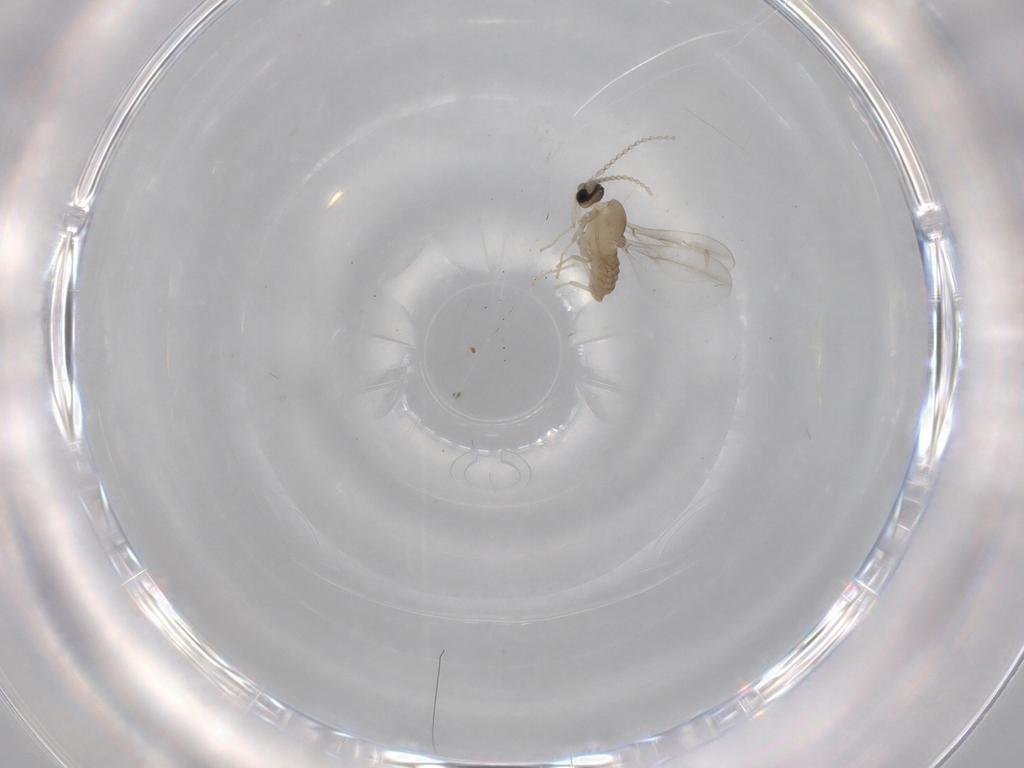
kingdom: Animalia
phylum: Arthropoda
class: Insecta
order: Diptera
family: Cecidomyiidae
